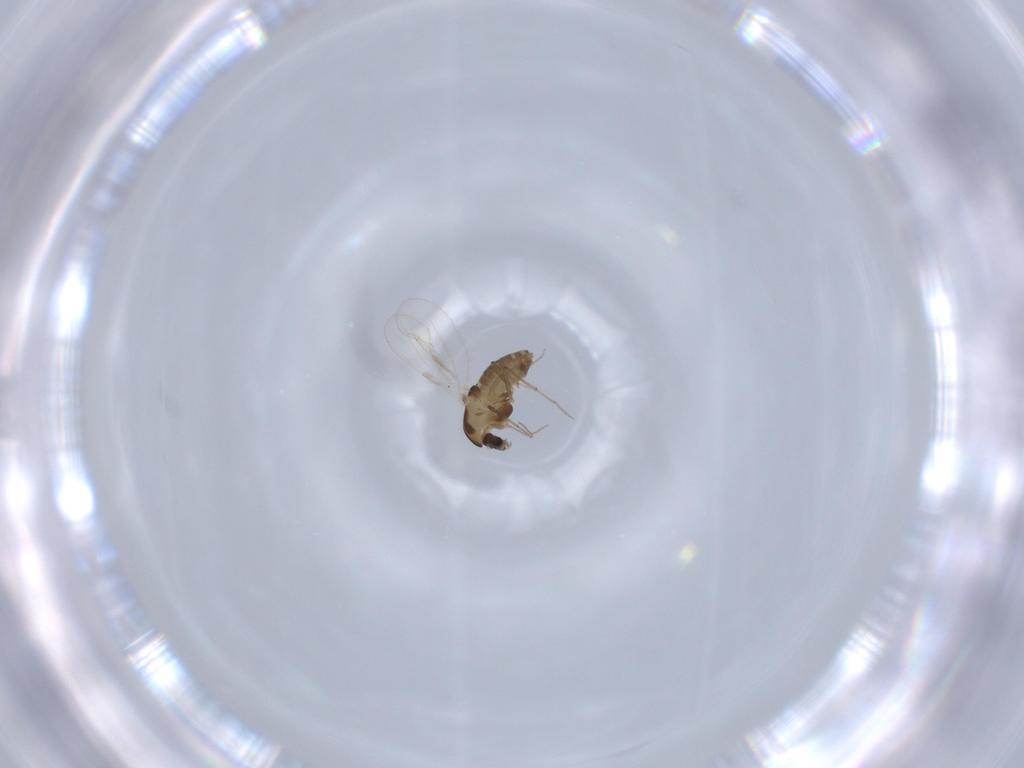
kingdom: Animalia
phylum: Arthropoda
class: Insecta
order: Diptera
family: Chironomidae
